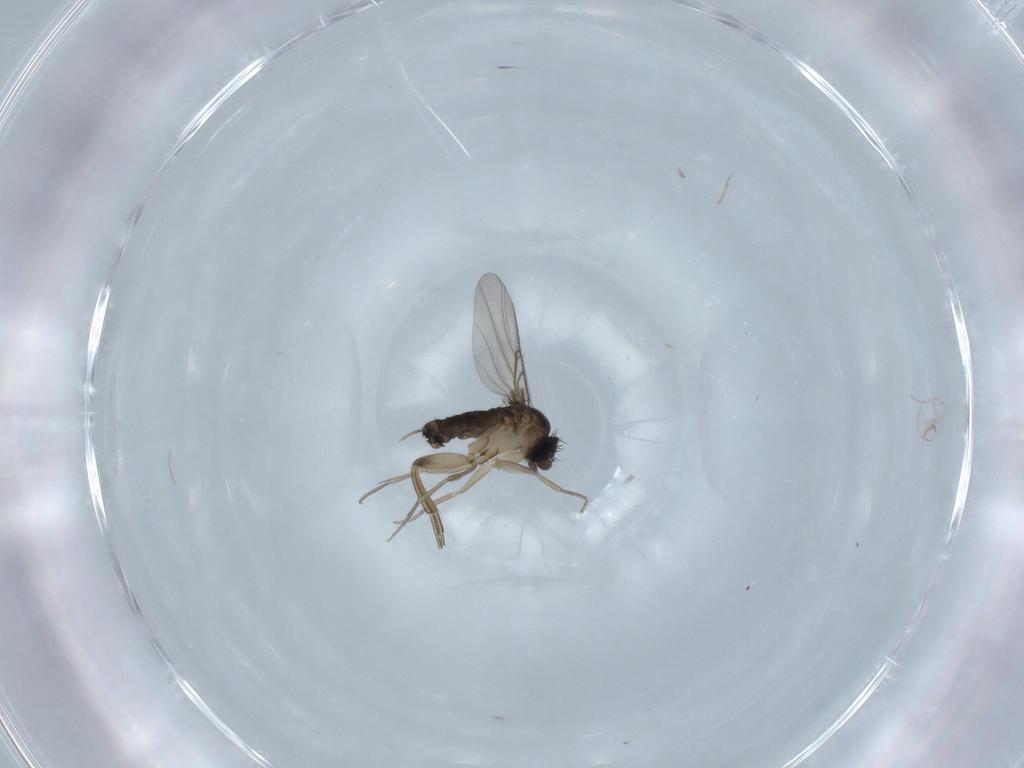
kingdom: Animalia
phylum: Arthropoda
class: Insecta
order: Diptera
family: Phoridae
